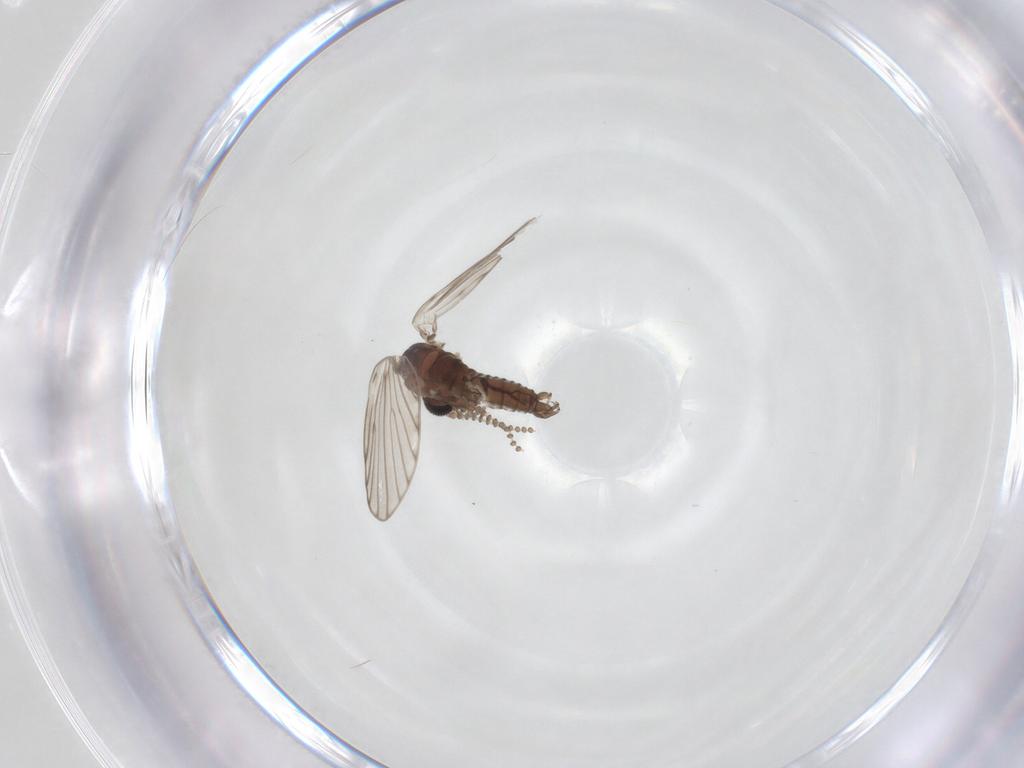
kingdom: Animalia
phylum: Arthropoda
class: Insecta
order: Diptera
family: Psychodidae
